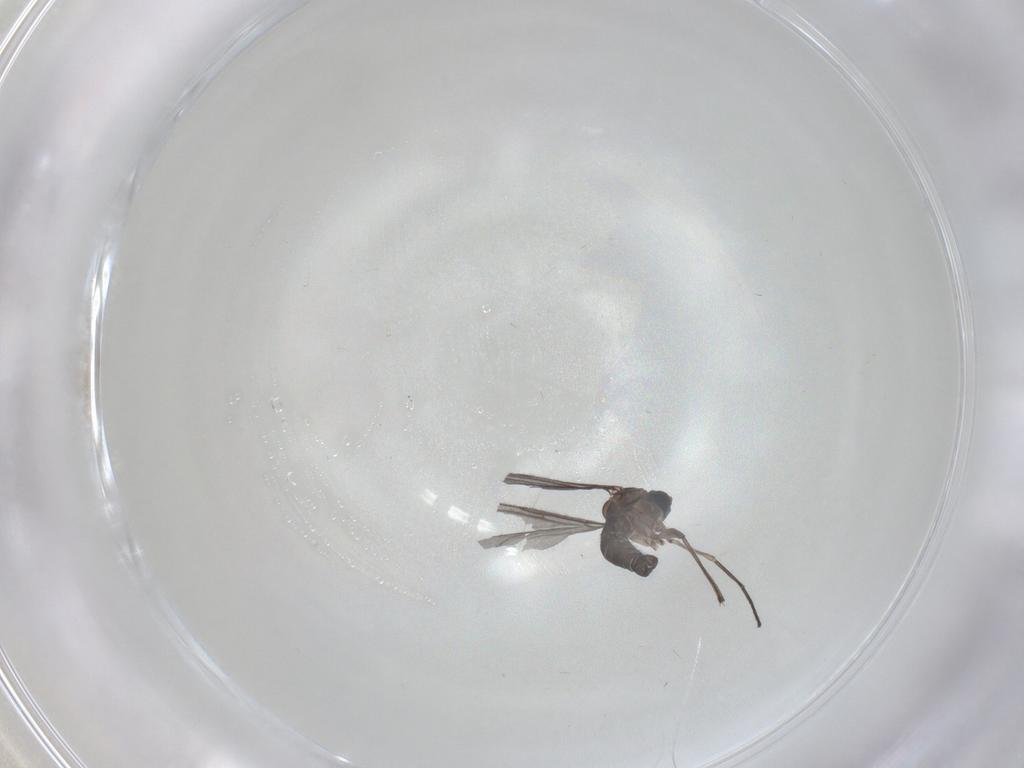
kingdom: Animalia
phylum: Arthropoda
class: Insecta
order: Diptera
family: Sciaridae
